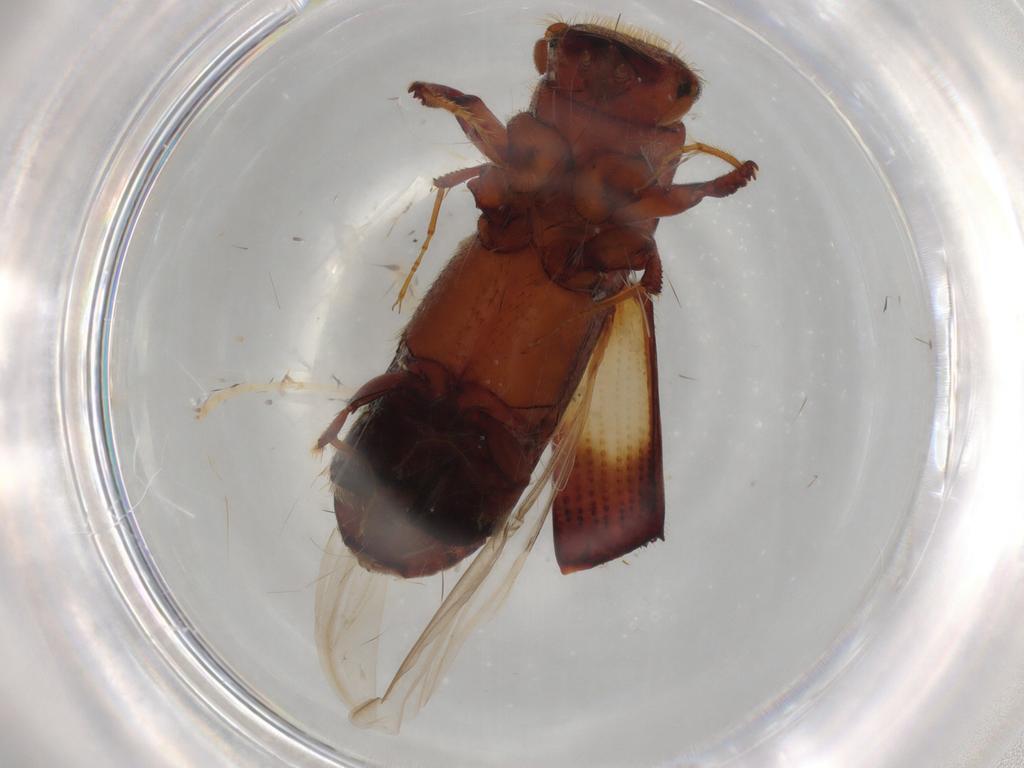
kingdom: Animalia
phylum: Arthropoda
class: Insecta
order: Coleoptera
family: Curculionidae
